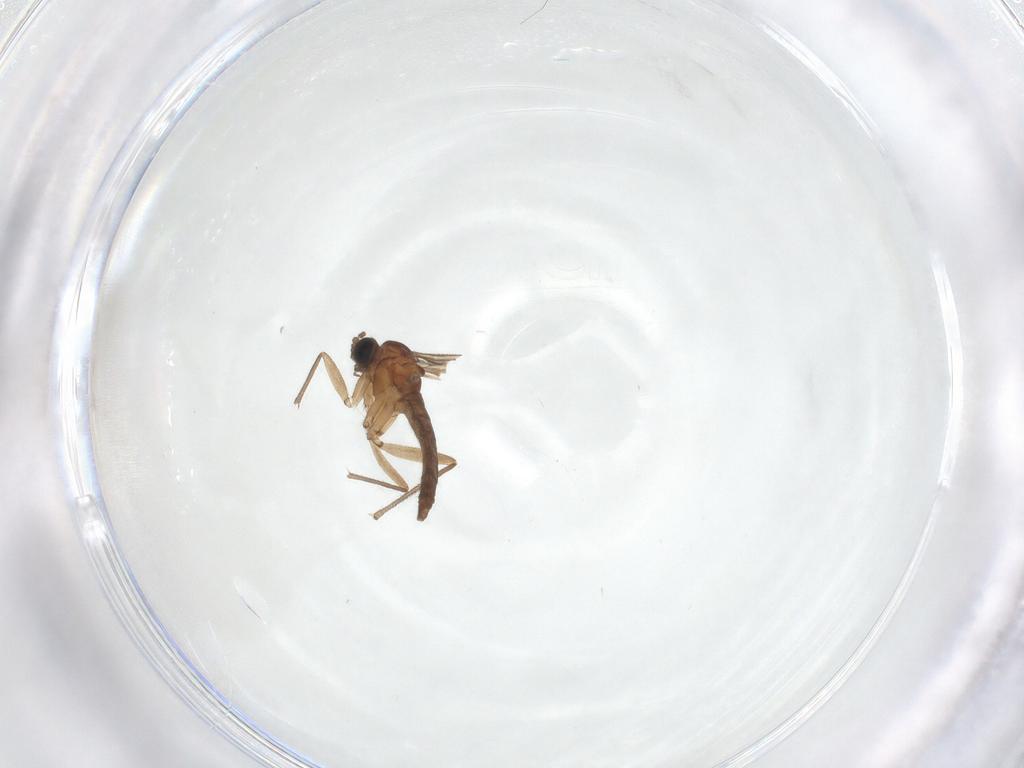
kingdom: Animalia
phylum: Arthropoda
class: Insecta
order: Diptera
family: Sciaridae
